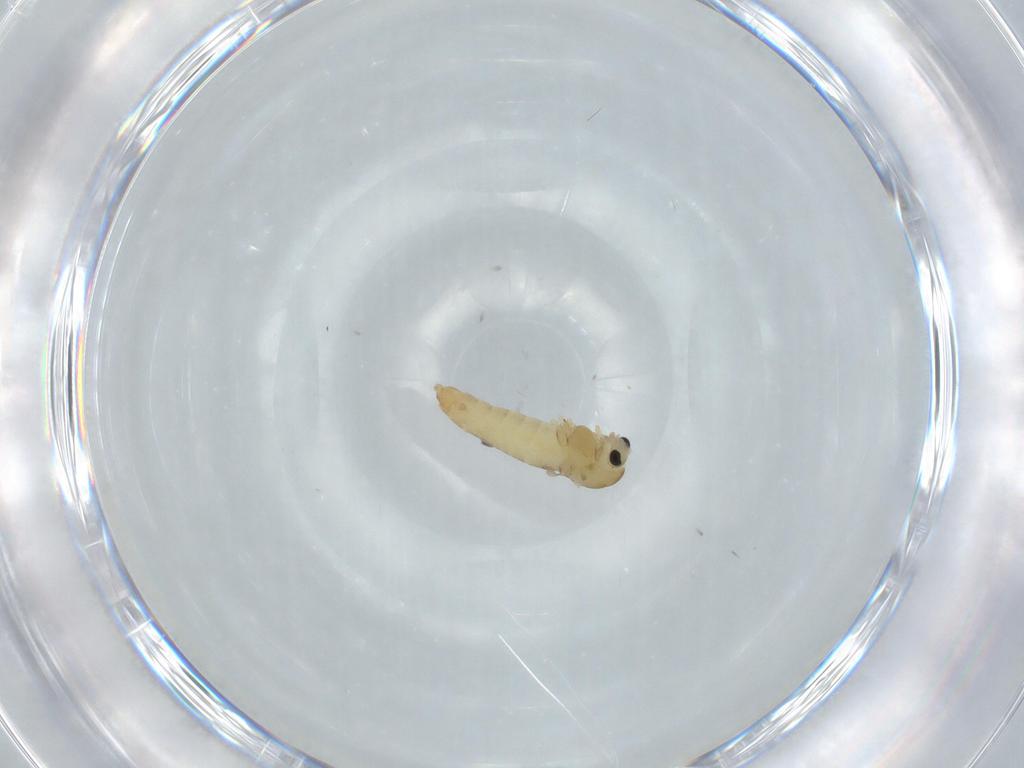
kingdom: Animalia
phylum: Arthropoda
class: Insecta
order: Diptera
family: Chironomidae
